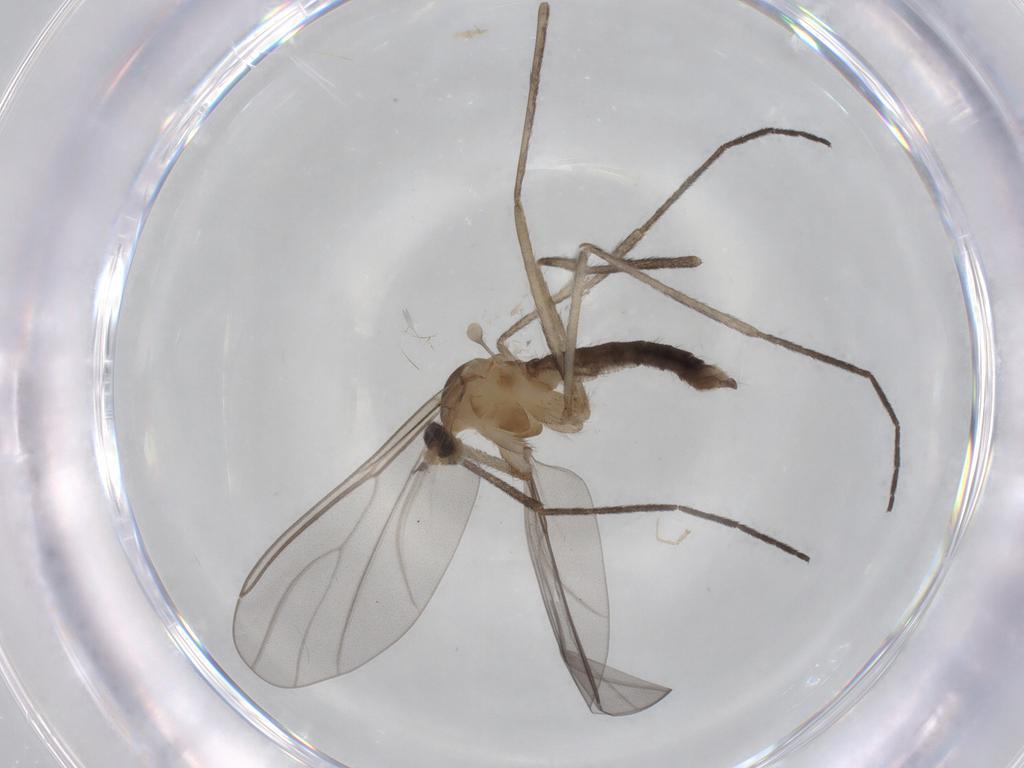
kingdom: Animalia
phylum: Arthropoda
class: Insecta
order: Diptera
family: Cecidomyiidae
